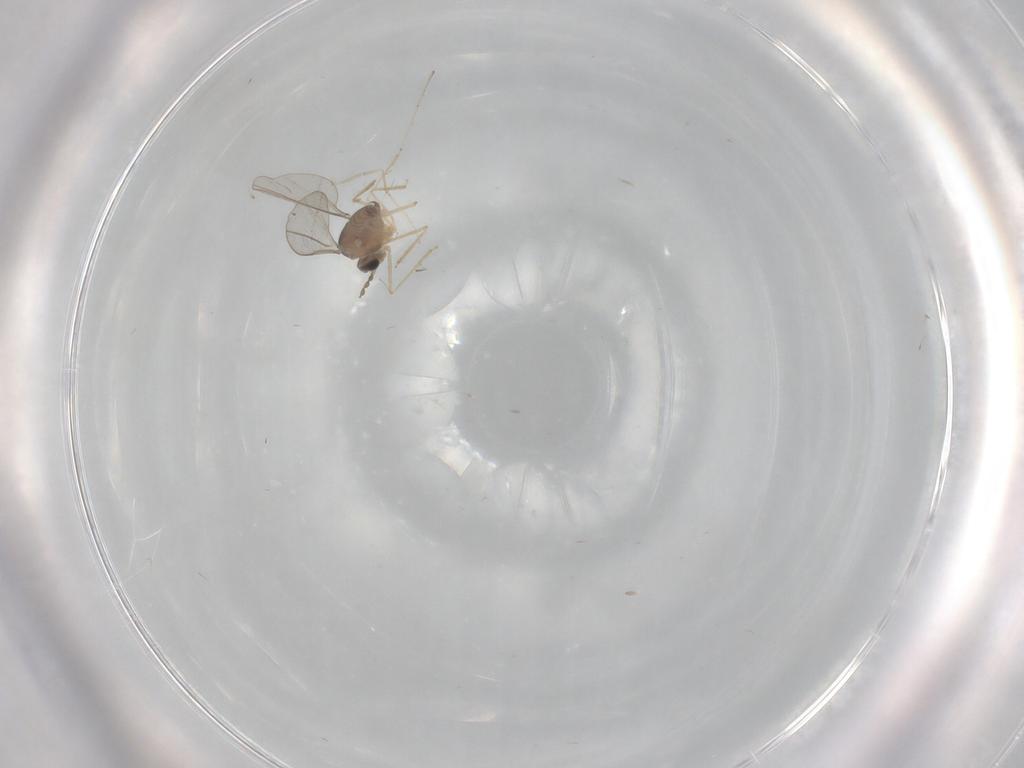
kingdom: Animalia
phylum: Arthropoda
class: Insecta
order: Diptera
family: Cecidomyiidae
